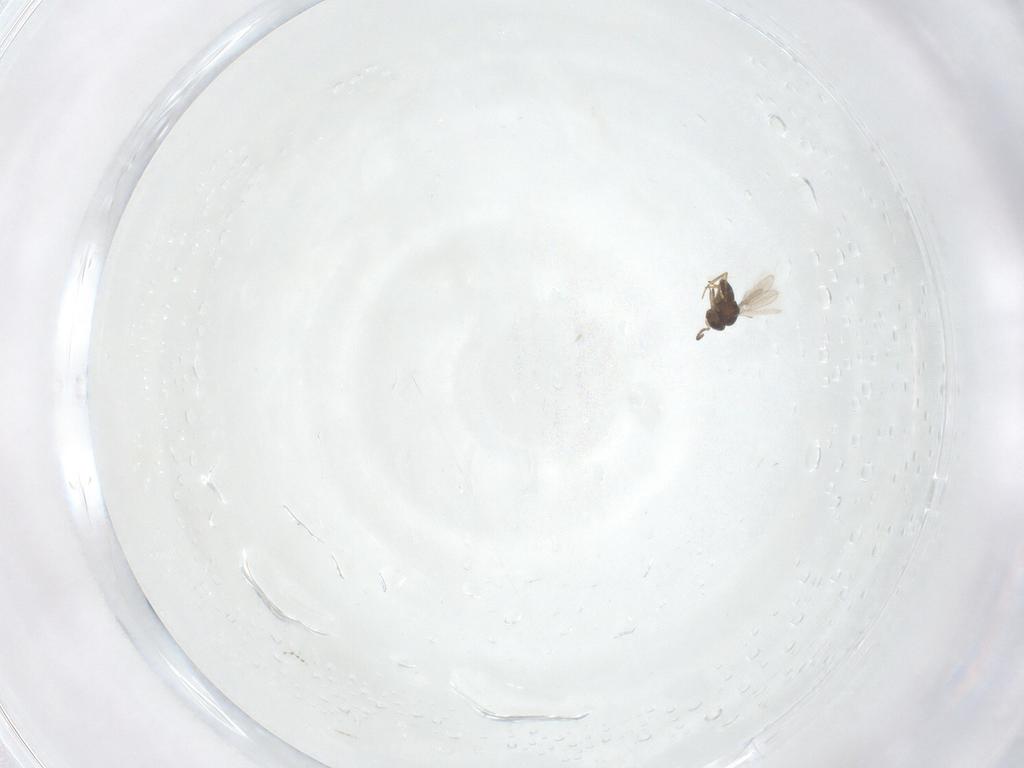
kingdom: Animalia
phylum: Arthropoda
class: Insecta
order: Hymenoptera
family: Scelionidae
